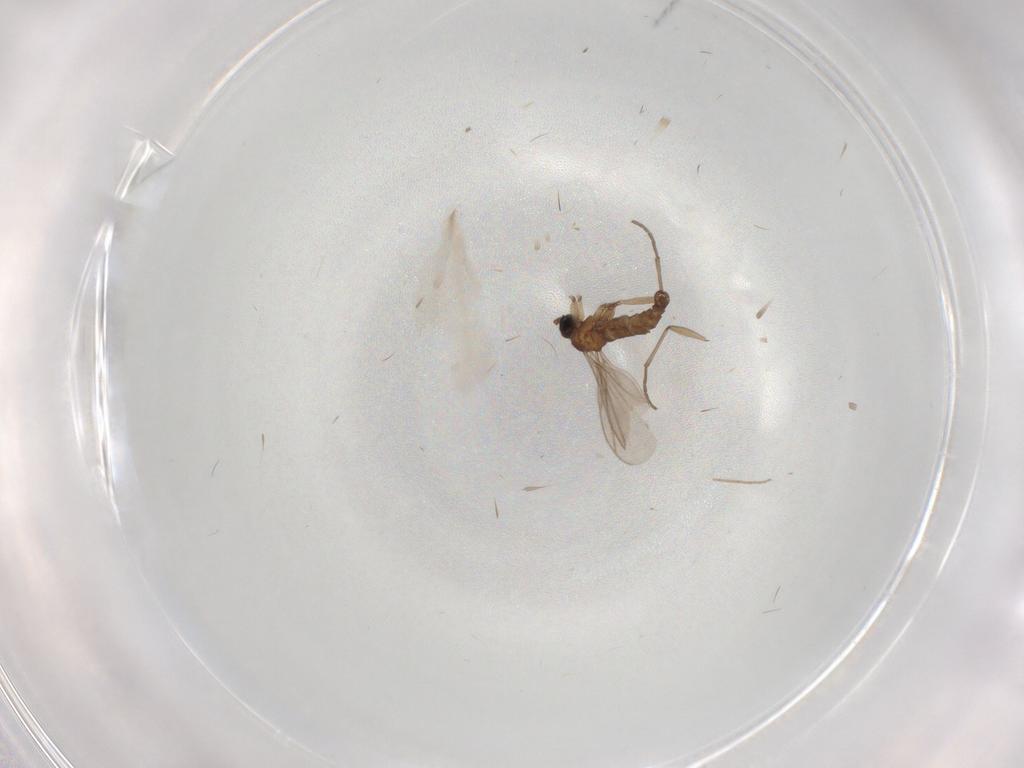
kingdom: Animalia
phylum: Arthropoda
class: Insecta
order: Diptera
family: Cecidomyiidae
